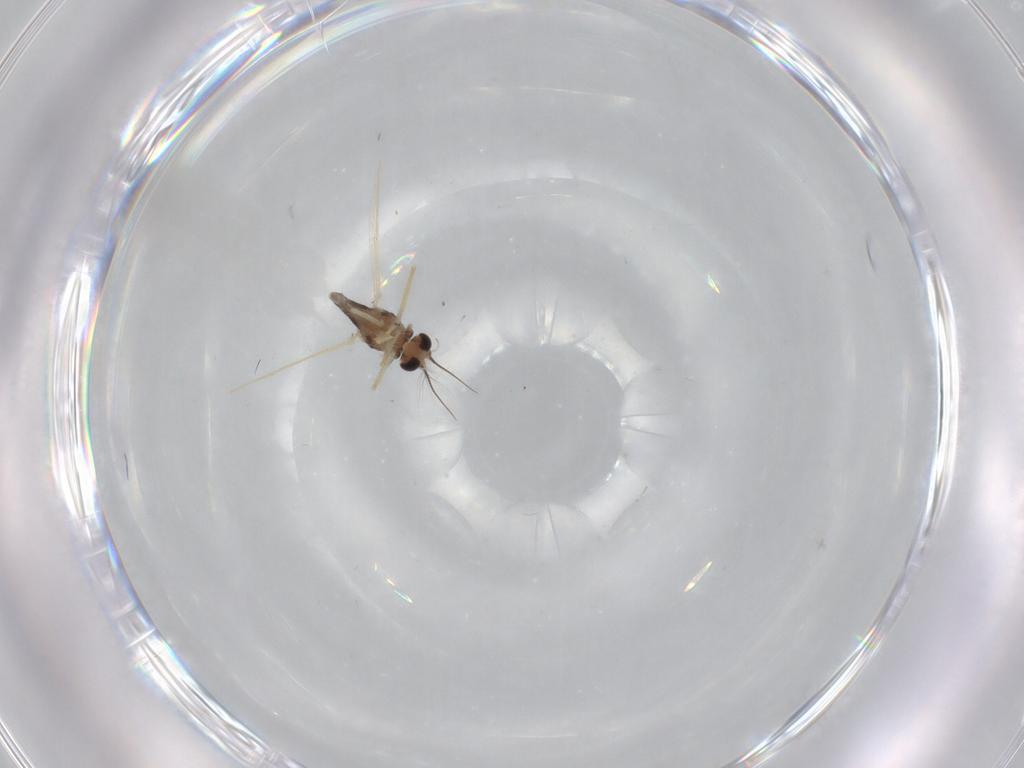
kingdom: Animalia
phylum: Arthropoda
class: Insecta
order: Diptera
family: Chironomidae
